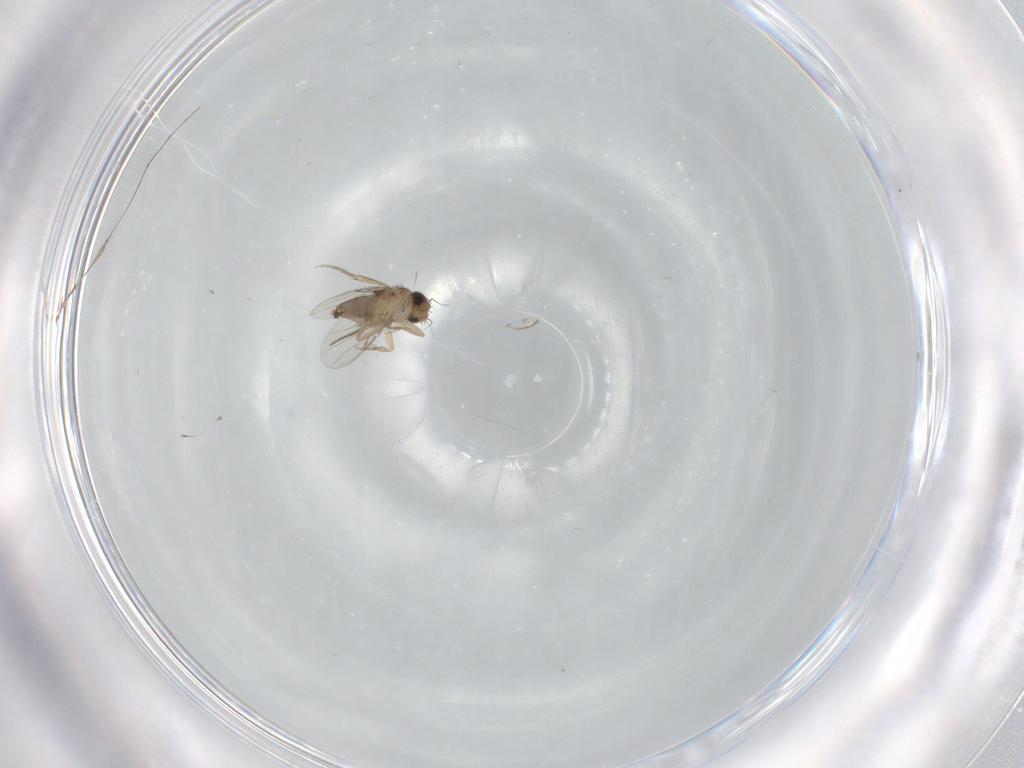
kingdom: Animalia
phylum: Arthropoda
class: Insecta
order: Diptera
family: Phoridae
